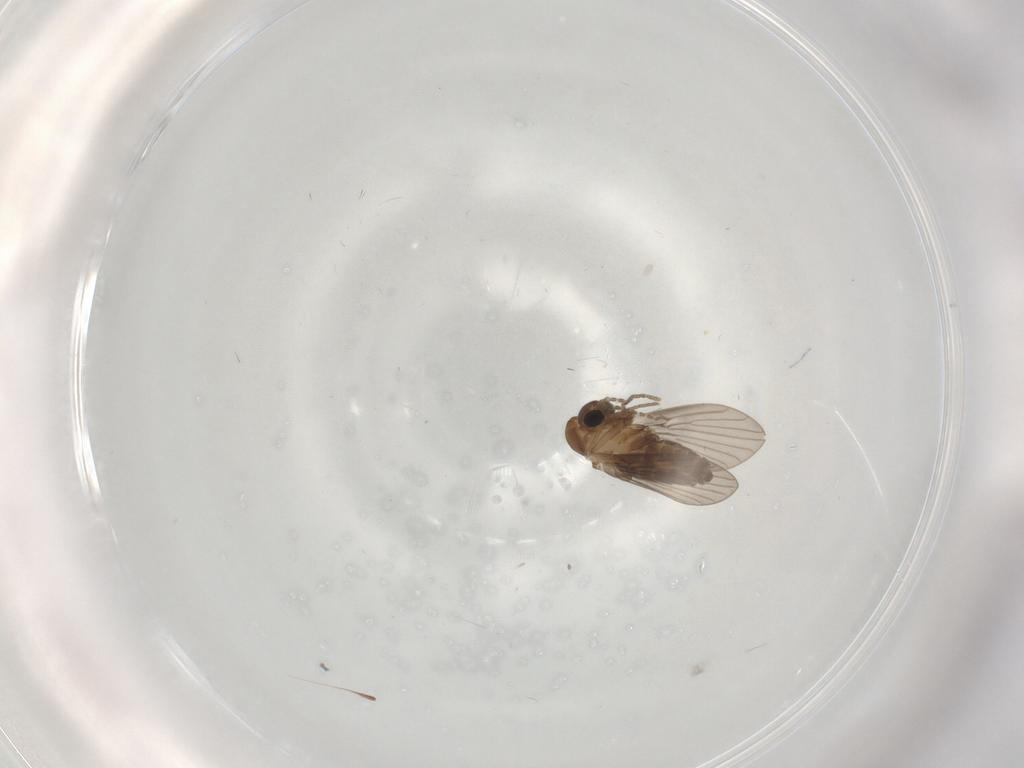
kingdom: Animalia
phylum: Arthropoda
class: Insecta
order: Diptera
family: Psychodidae
